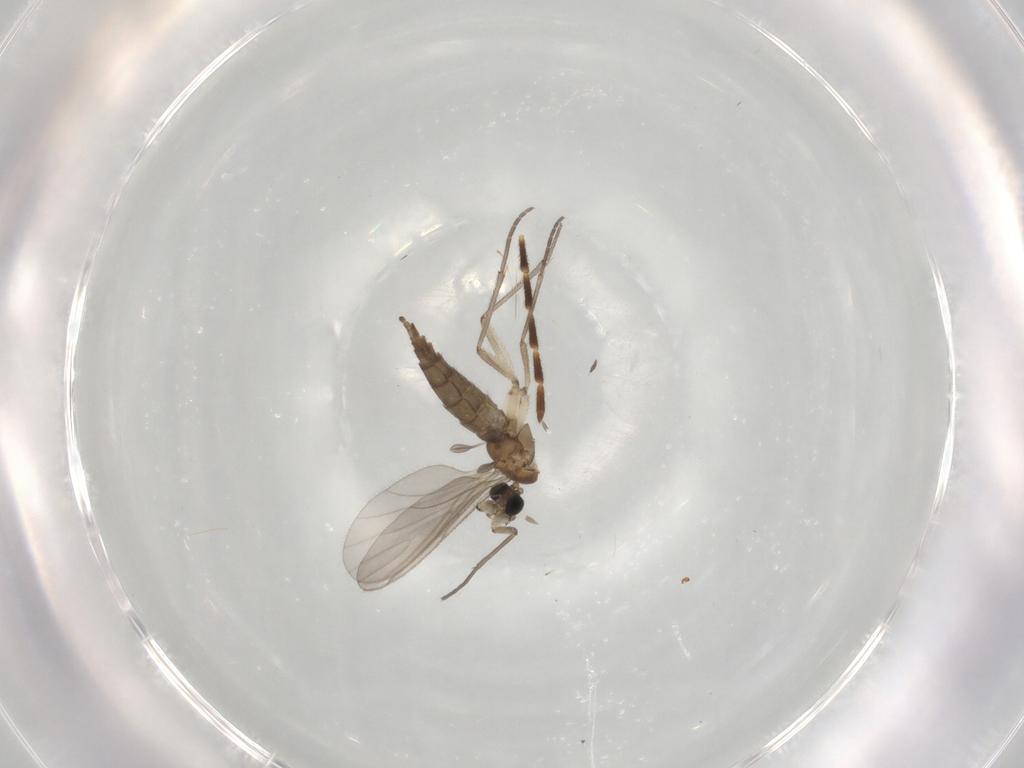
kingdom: Animalia
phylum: Arthropoda
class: Insecta
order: Diptera
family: Sciaridae
